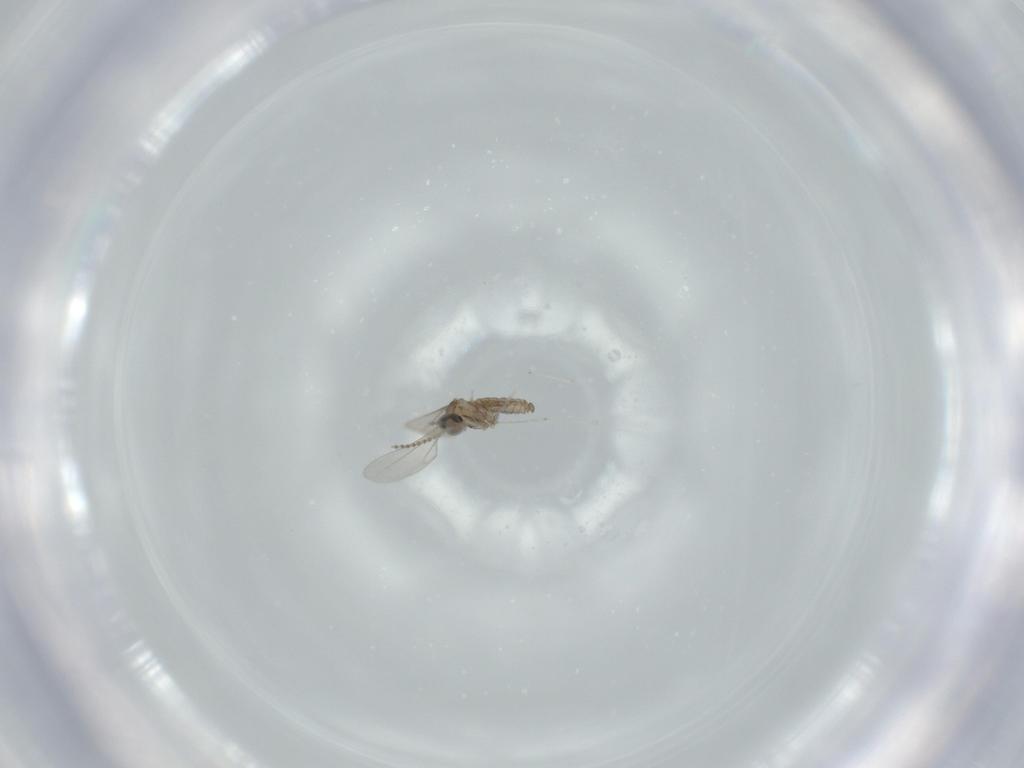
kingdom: Animalia
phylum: Arthropoda
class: Insecta
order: Diptera
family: Cecidomyiidae
